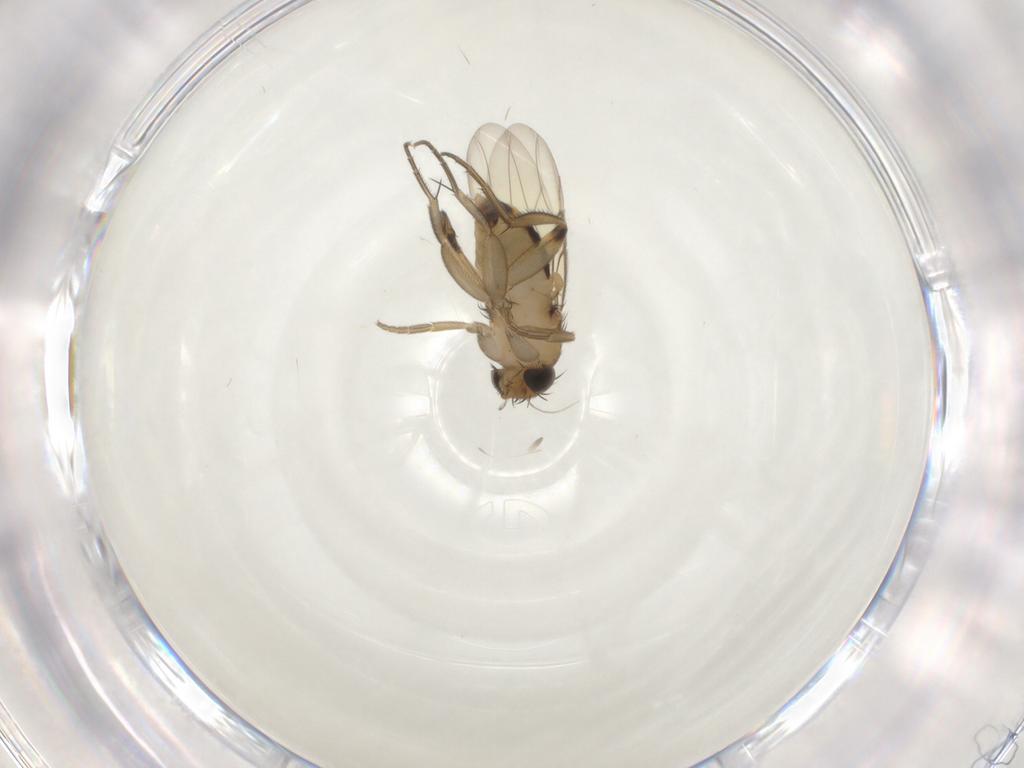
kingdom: Animalia
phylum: Arthropoda
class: Insecta
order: Diptera
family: Phoridae
